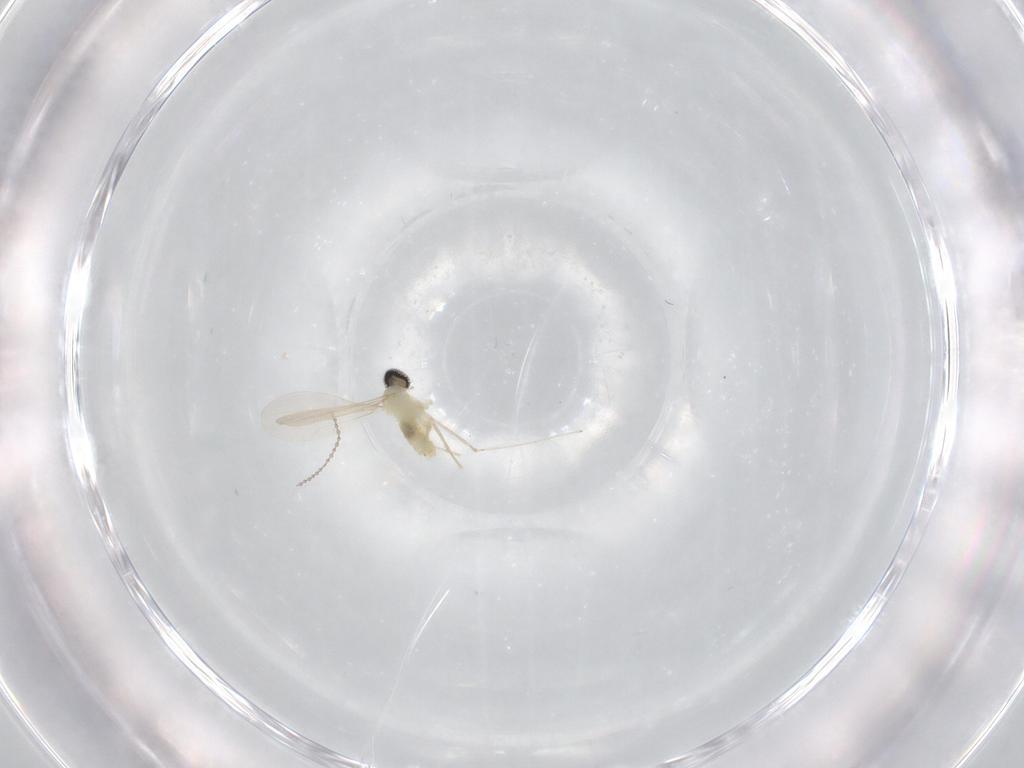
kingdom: Animalia
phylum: Arthropoda
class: Insecta
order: Diptera
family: Cecidomyiidae
